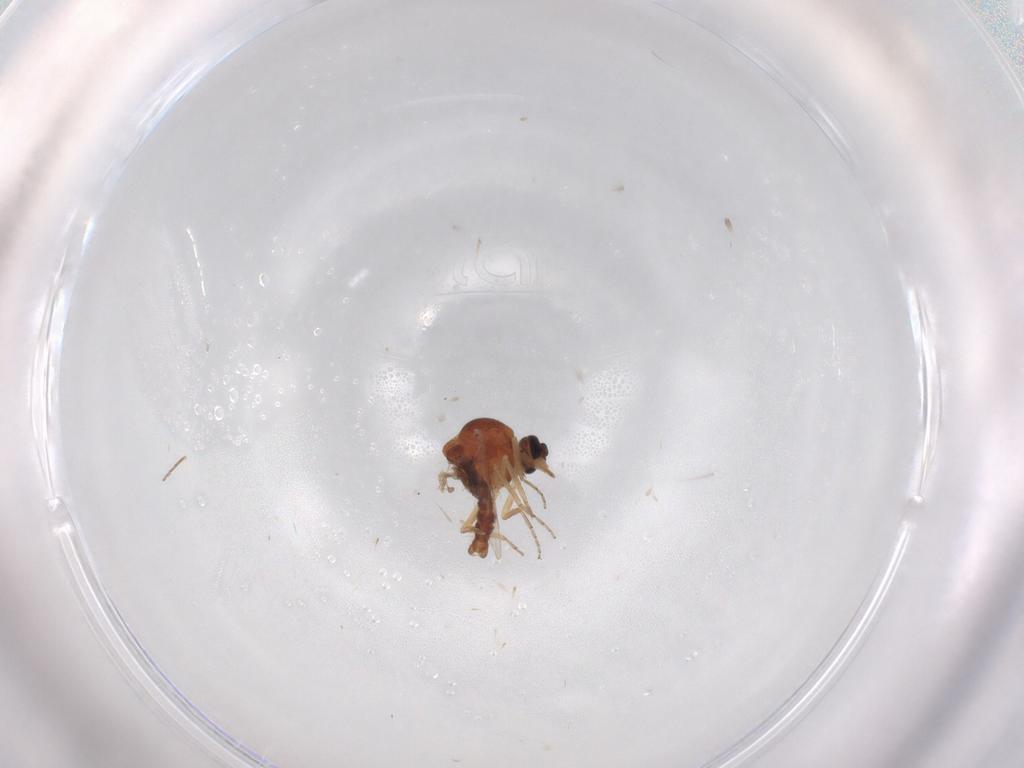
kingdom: Animalia
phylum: Arthropoda
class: Insecta
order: Diptera
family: Ceratopogonidae
